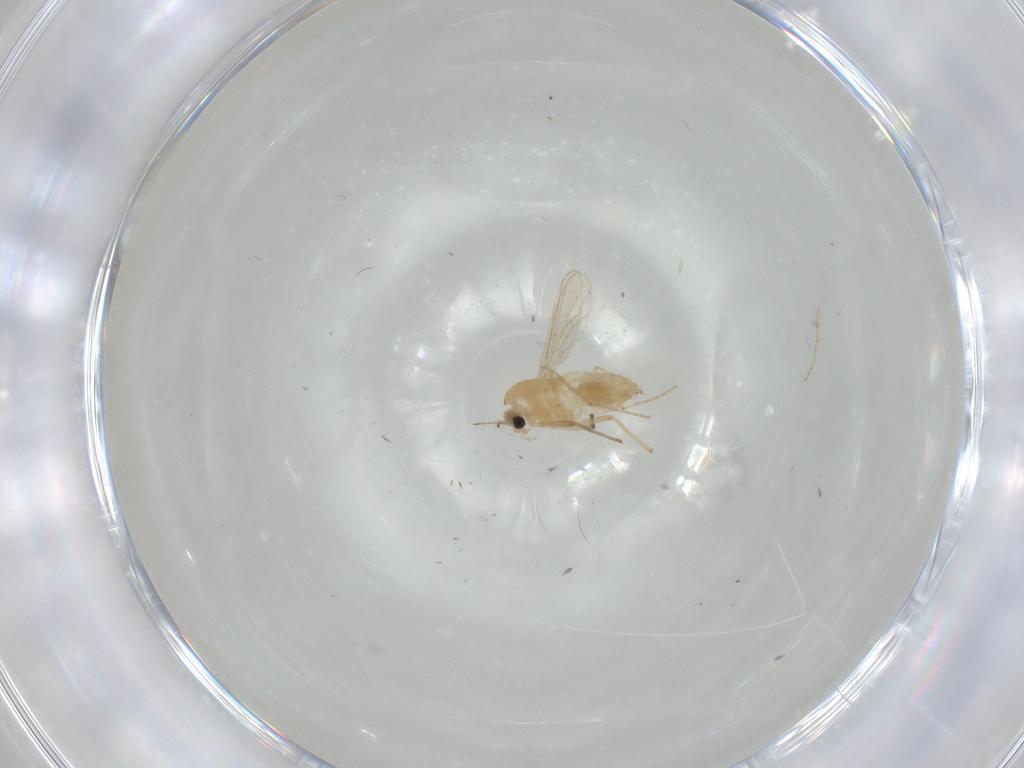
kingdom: Animalia
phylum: Arthropoda
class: Insecta
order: Diptera
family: Chironomidae
